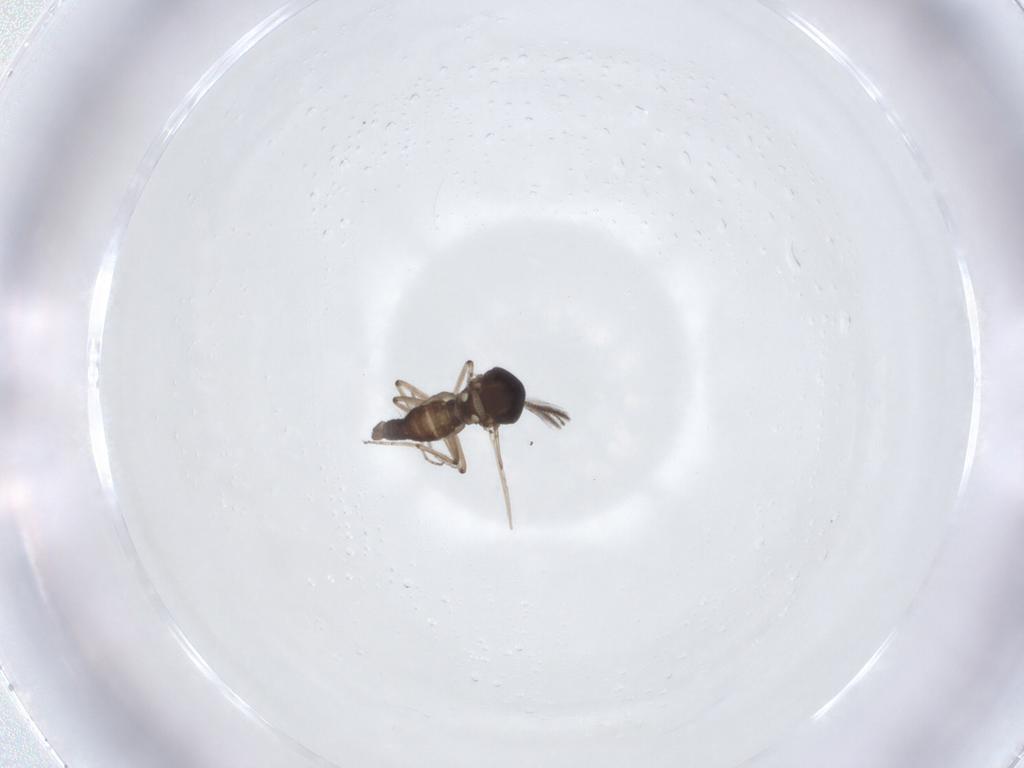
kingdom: Animalia
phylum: Arthropoda
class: Insecta
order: Diptera
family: Ceratopogonidae
